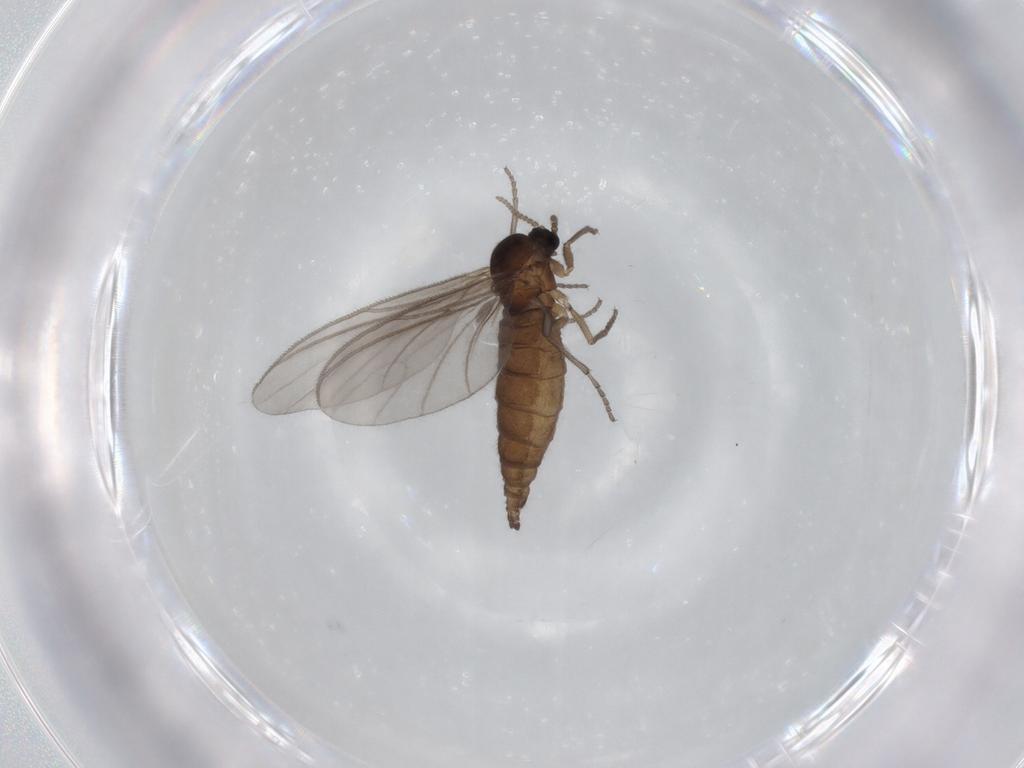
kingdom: Animalia
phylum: Arthropoda
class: Insecta
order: Diptera
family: Sciaridae
